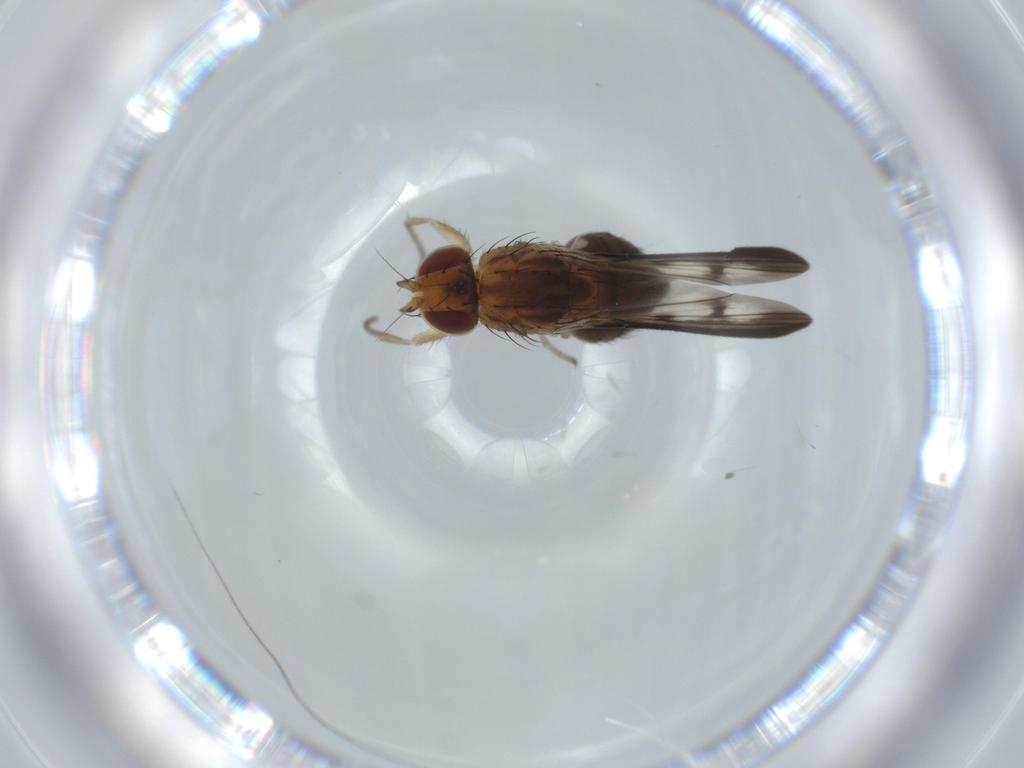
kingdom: Animalia
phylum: Arthropoda
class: Insecta
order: Diptera
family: Heleomyzidae
